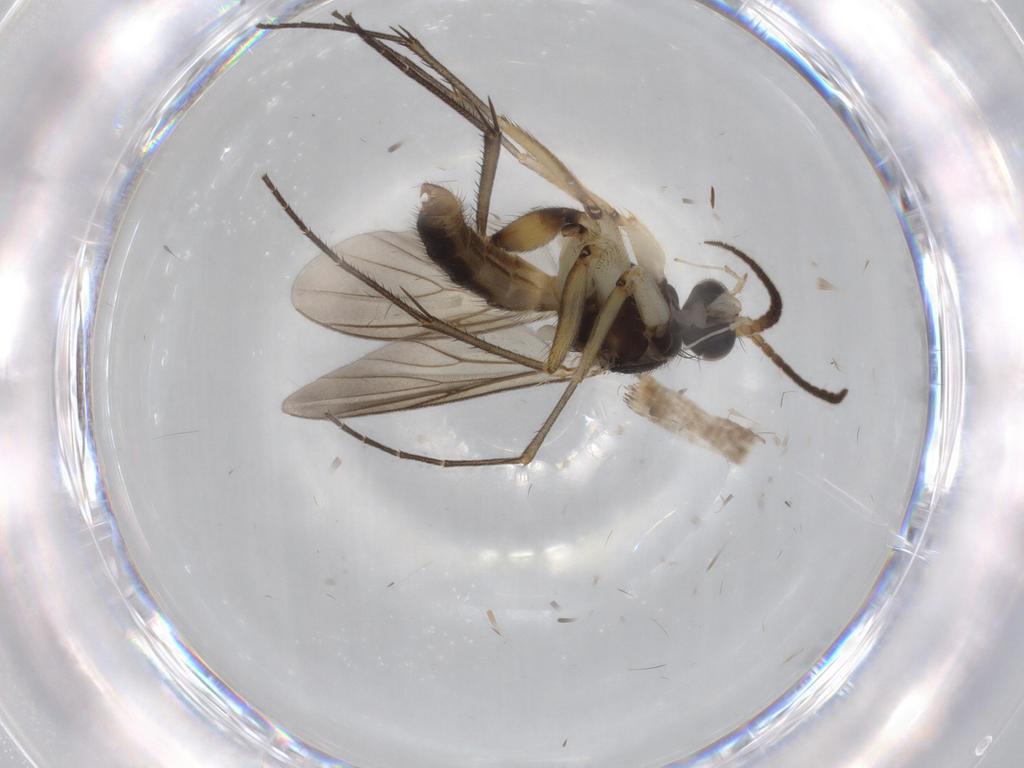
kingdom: Animalia
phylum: Arthropoda
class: Insecta
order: Diptera
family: Cecidomyiidae
